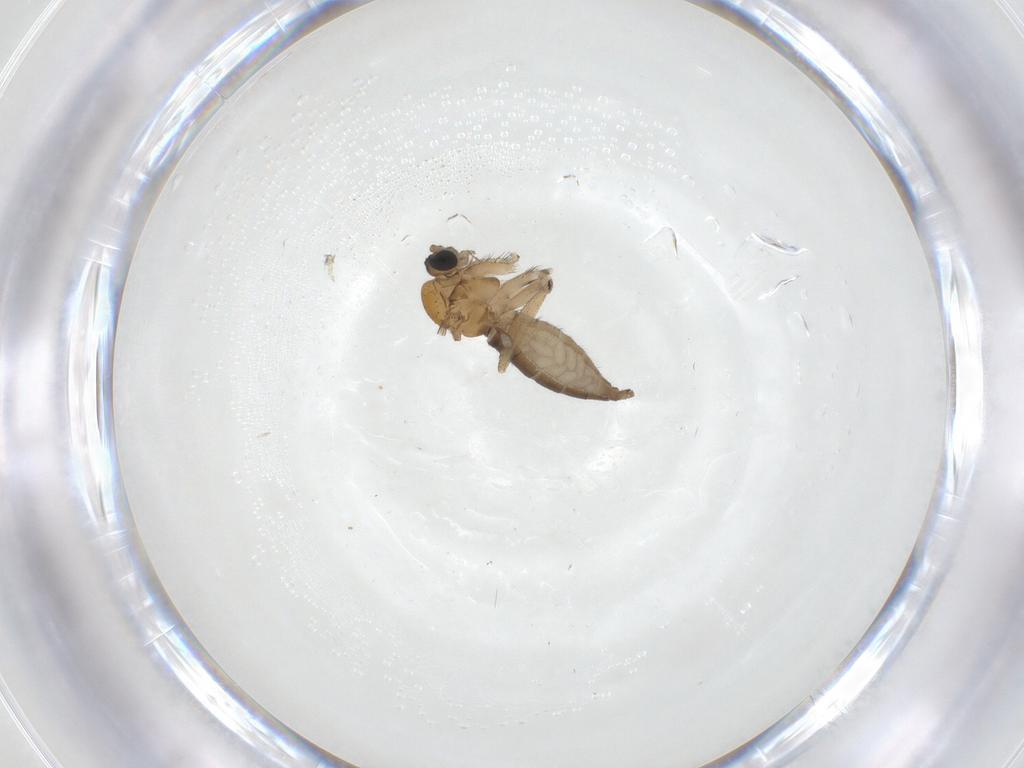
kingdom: Animalia
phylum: Arthropoda
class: Insecta
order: Diptera
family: Sciaridae
